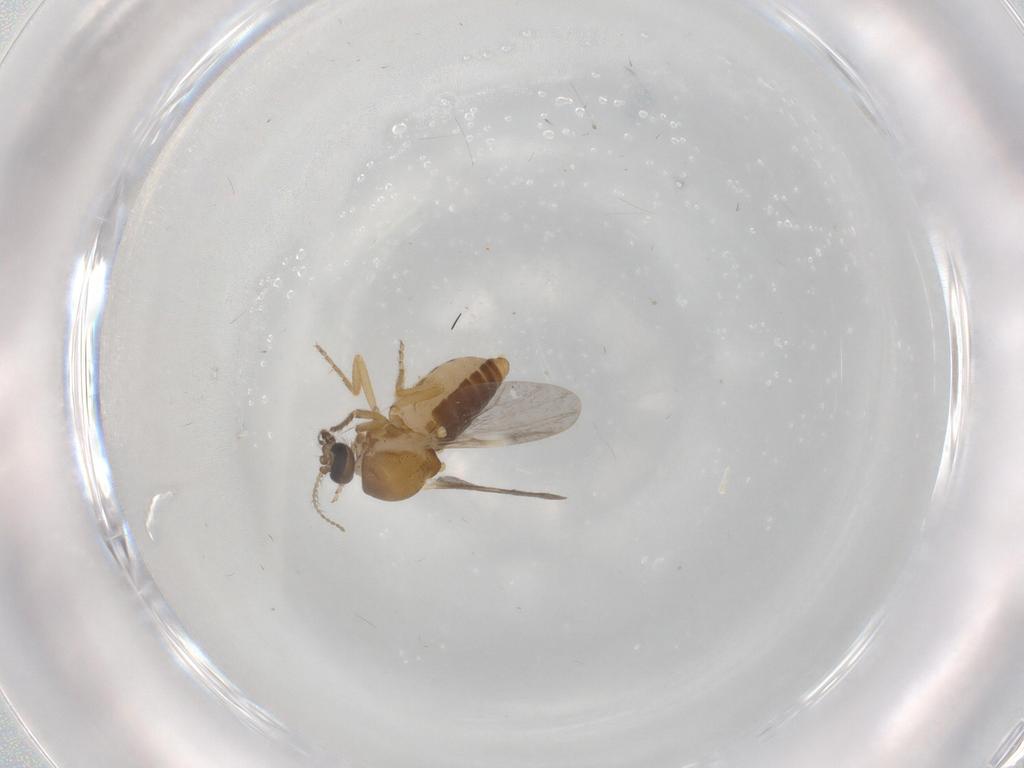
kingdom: Animalia
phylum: Arthropoda
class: Insecta
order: Diptera
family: Ceratopogonidae
